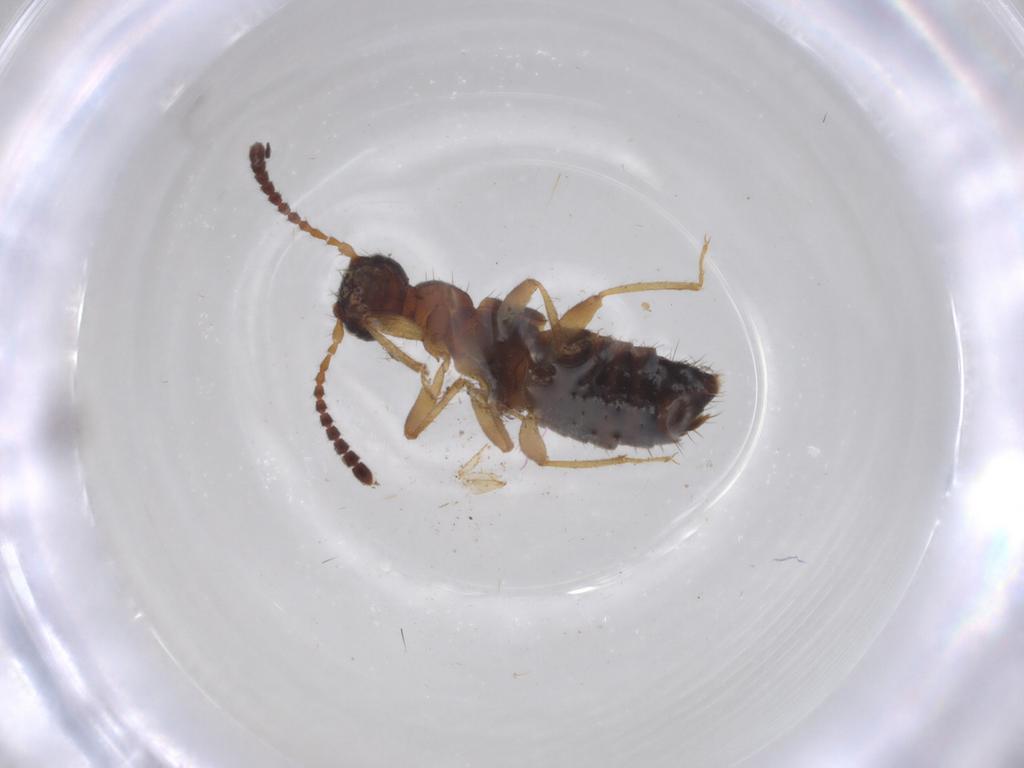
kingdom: Animalia
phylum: Arthropoda
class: Insecta
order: Coleoptera
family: Staphylinidae
